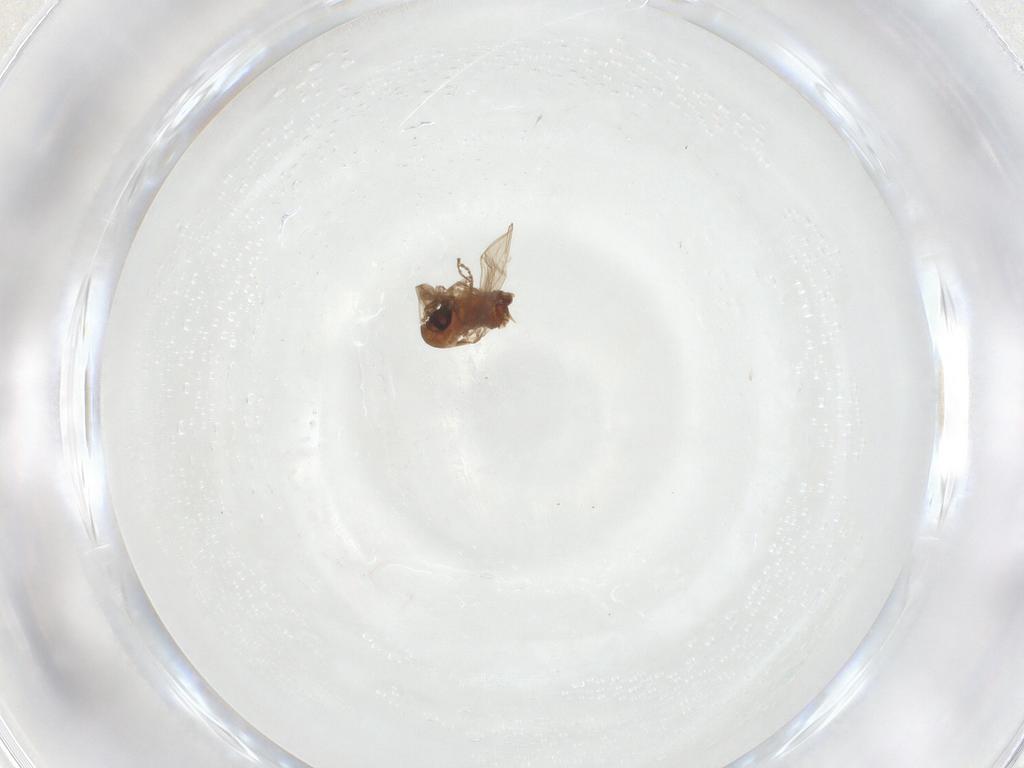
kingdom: Animalia
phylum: Arthropoda
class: Insecta
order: Diptera
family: Psychodidae
